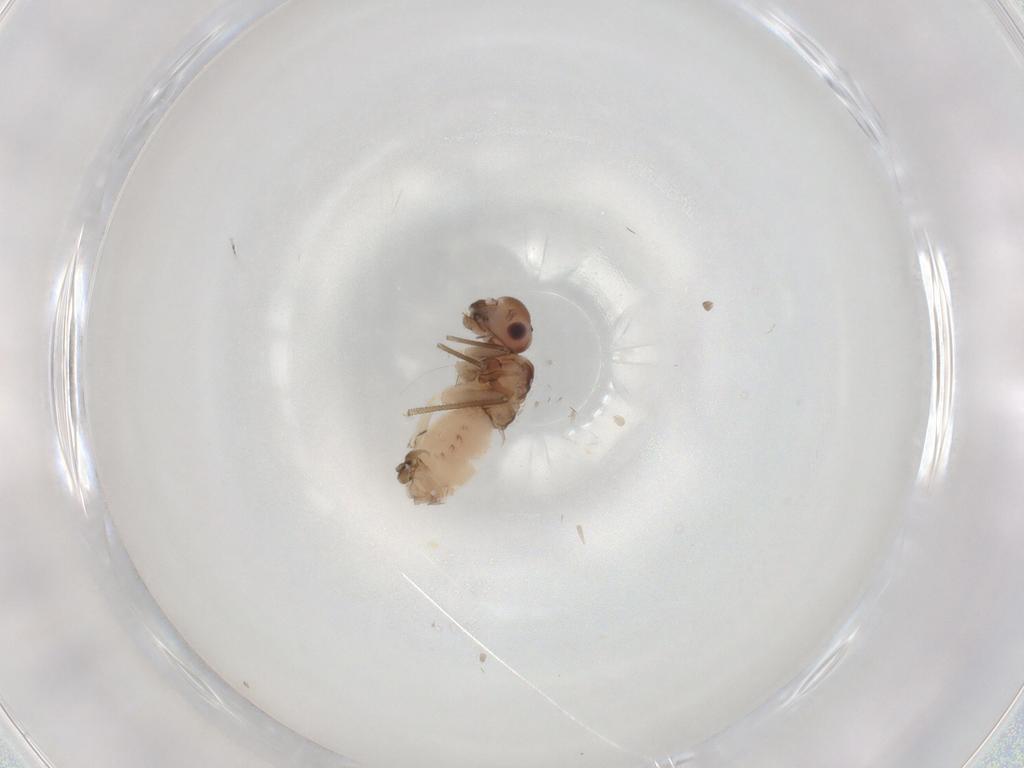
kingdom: Animalia
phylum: Arthropoda
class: Insecta
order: Psocodea
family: Peripsocidae
